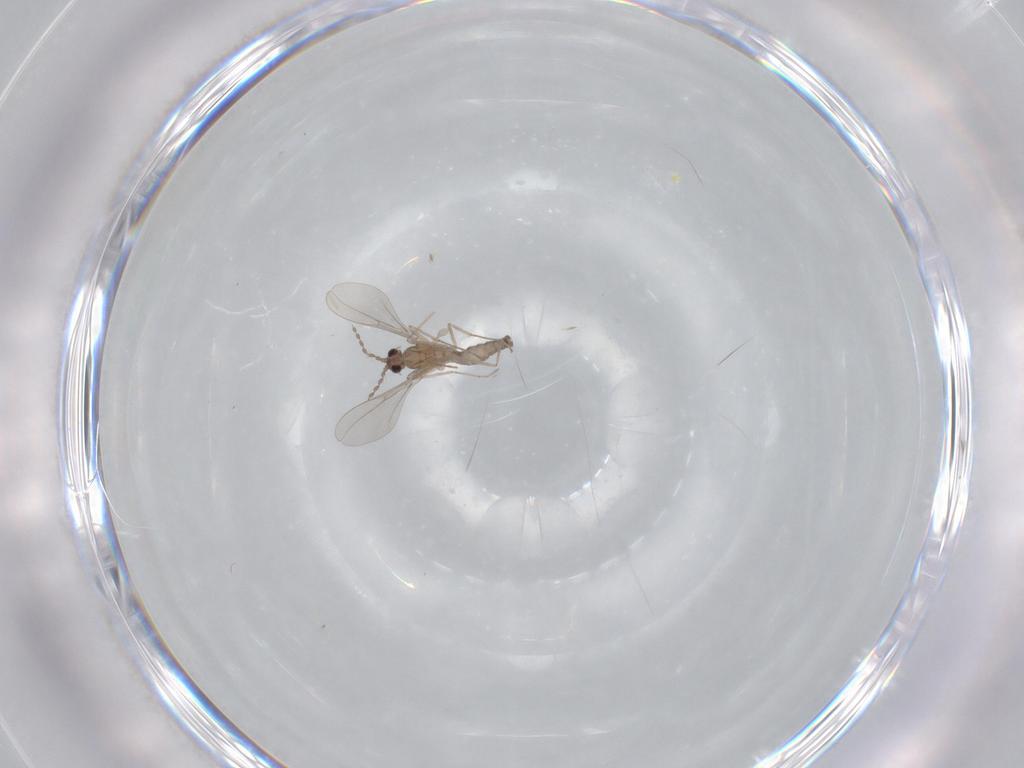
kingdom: Animalia
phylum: Arthropoda
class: Insecta
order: Diptera
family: Cecidomyiidae
